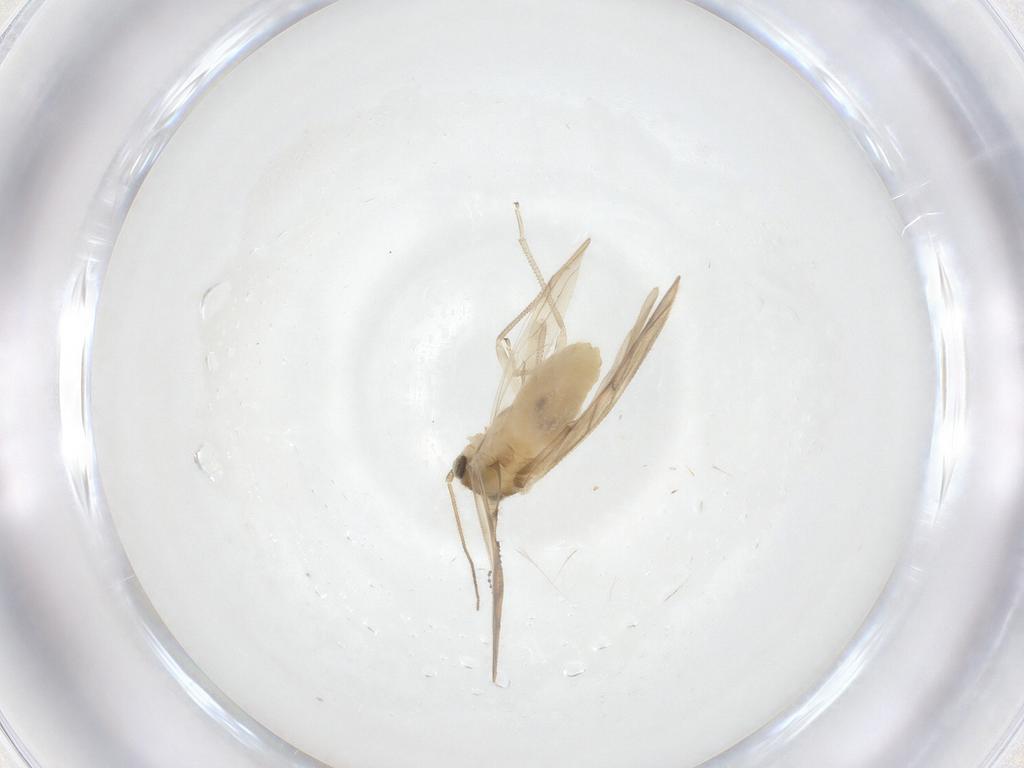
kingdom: Animalia
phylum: Arthropoda
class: Insecta
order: Psocodea
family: Caeciliusidae
